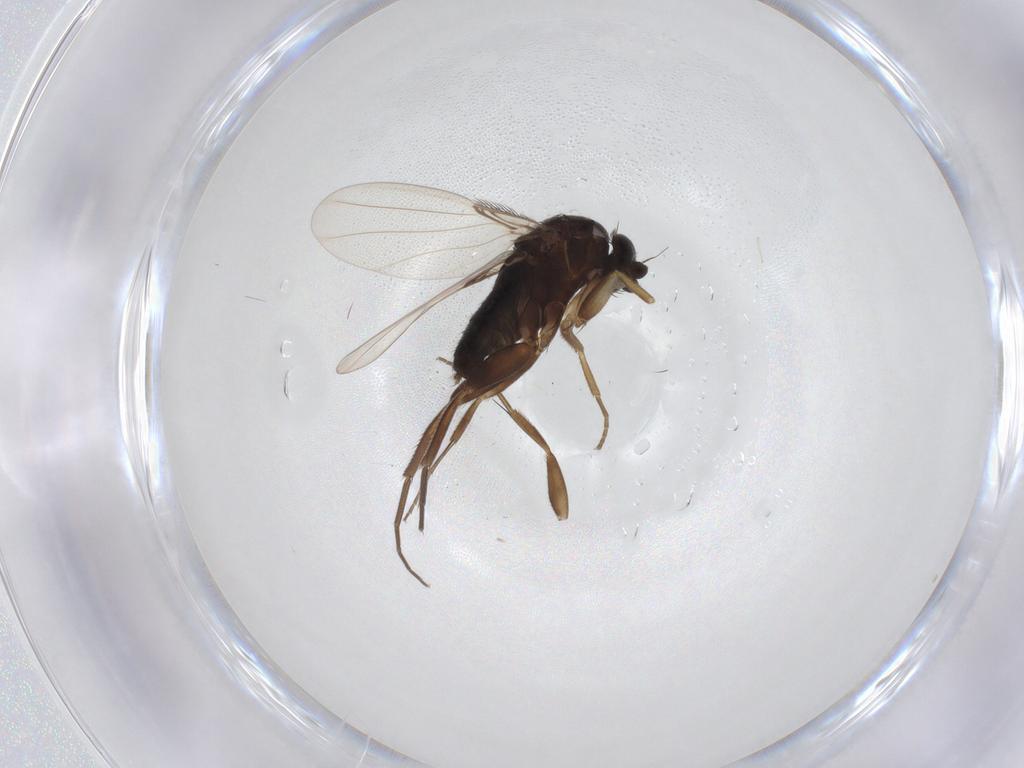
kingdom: Animalia
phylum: Arthropoda
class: Insecta
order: Diptera
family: Phoridae
